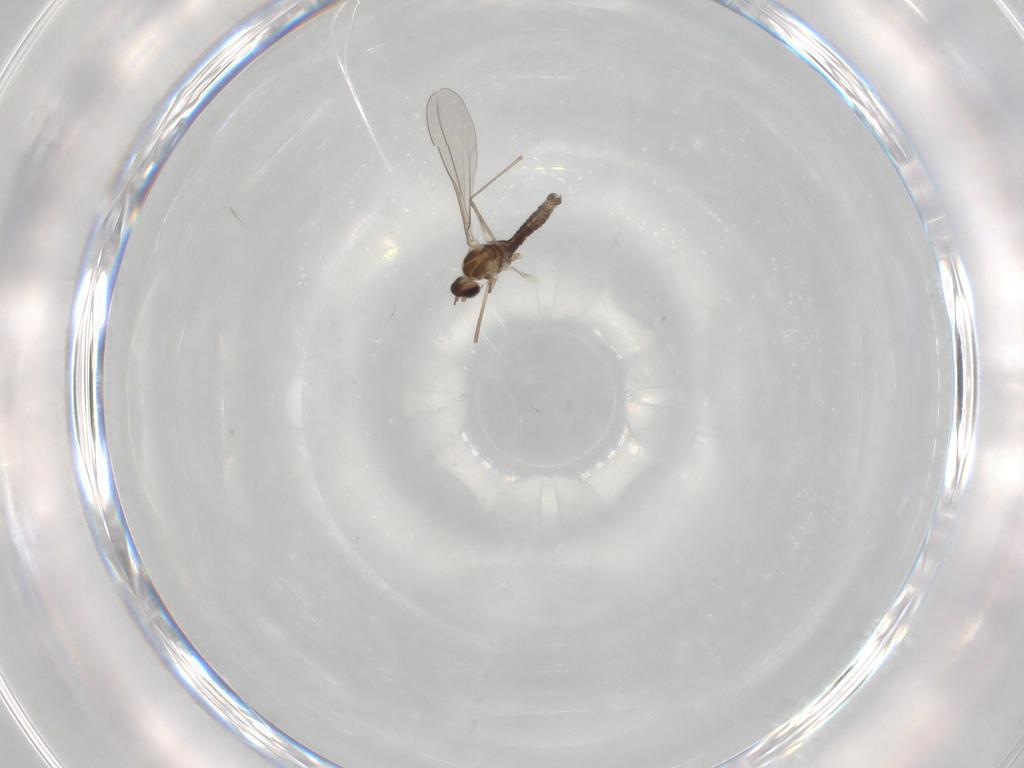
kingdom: Animalia
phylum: Arthropoda
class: Insecta
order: Diptera
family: Cecidomyiidae
